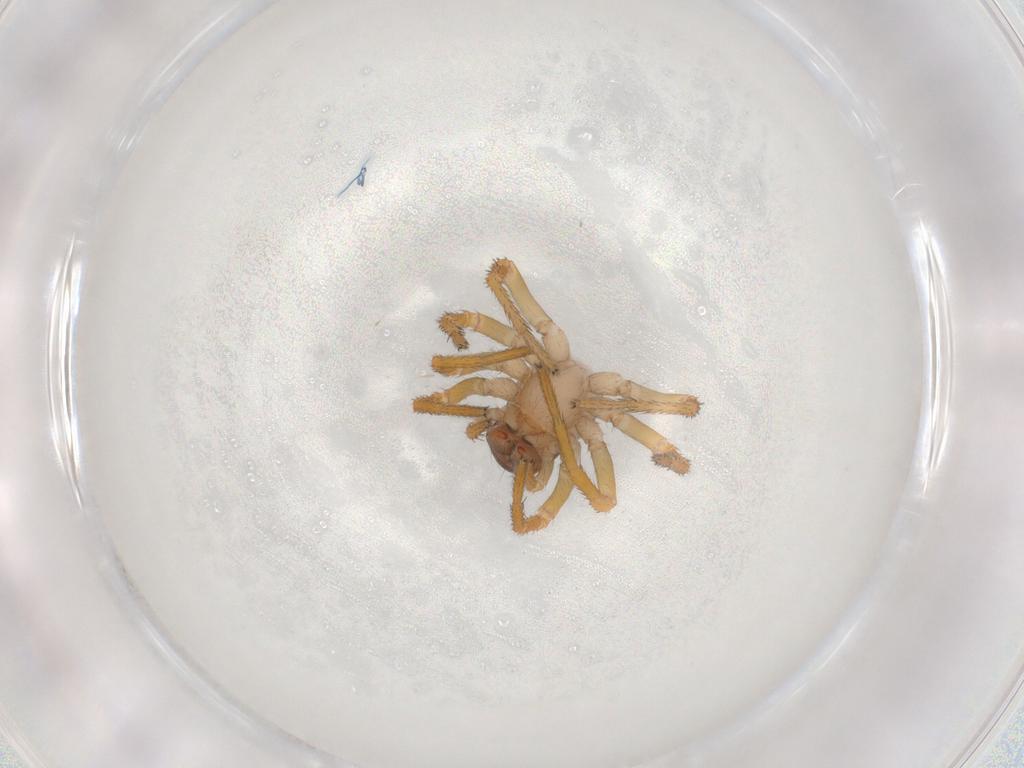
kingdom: Animalia
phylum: Arthropoda
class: Arachnida
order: Araneae
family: Zodariidae
